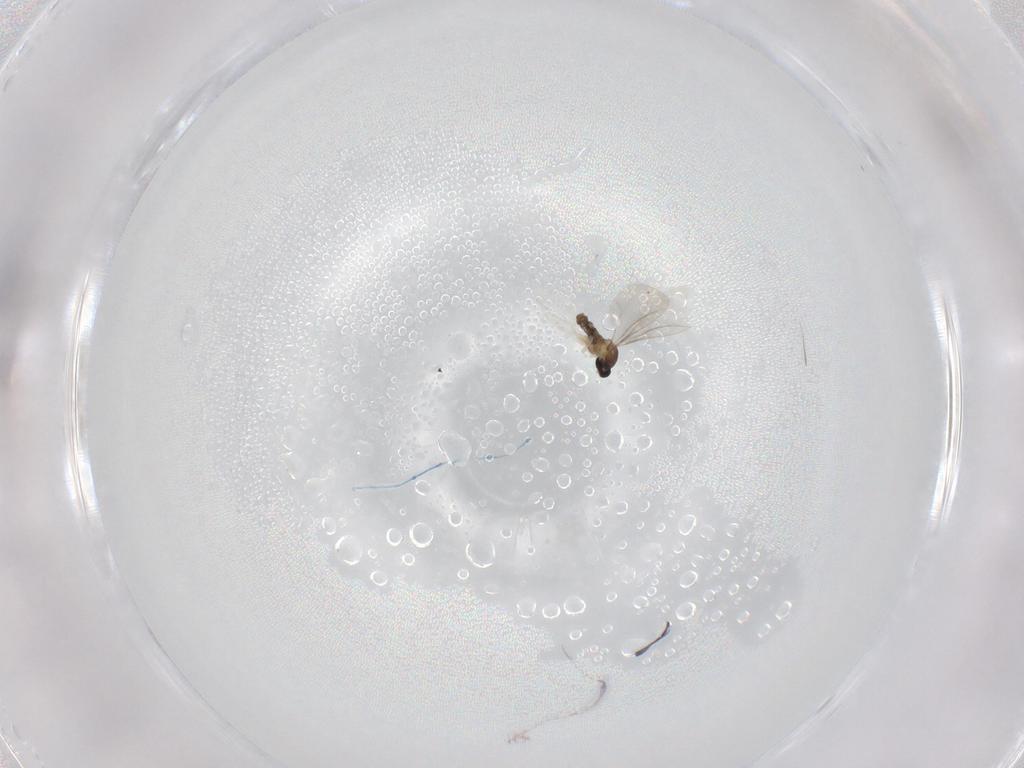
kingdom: Animalia
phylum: Arthropoda
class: Insecta
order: Diptera
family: Cecidomyiidae
